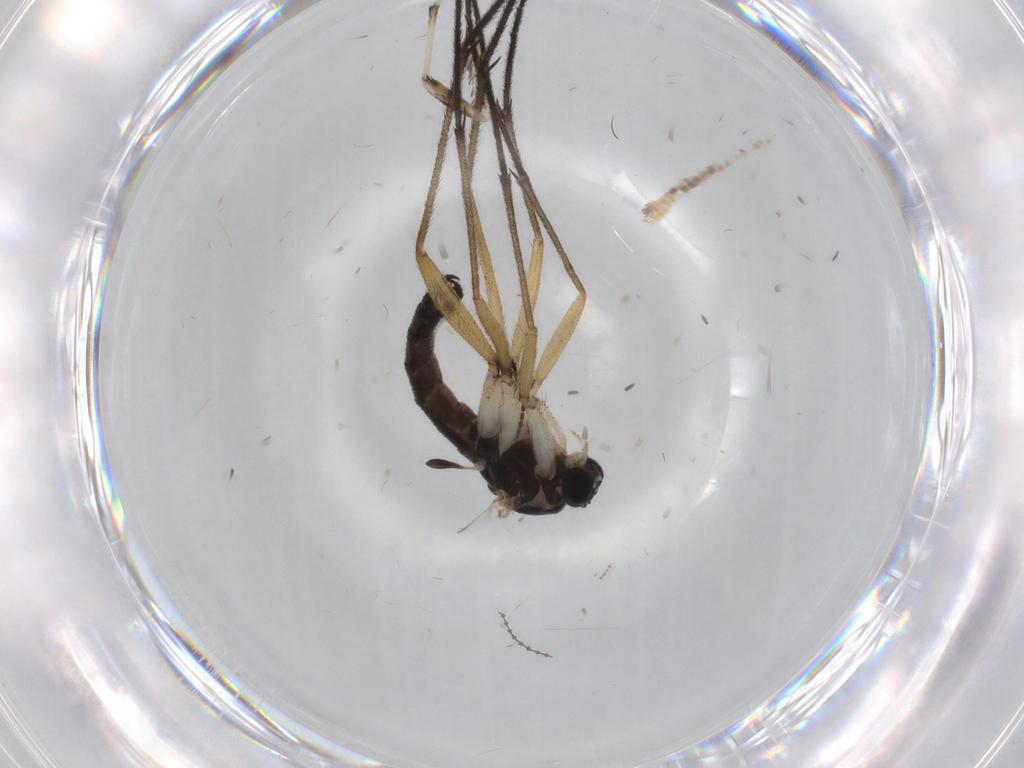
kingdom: Animalia
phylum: Arthropoda
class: Insecta
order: Diptera
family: Sciaridae
